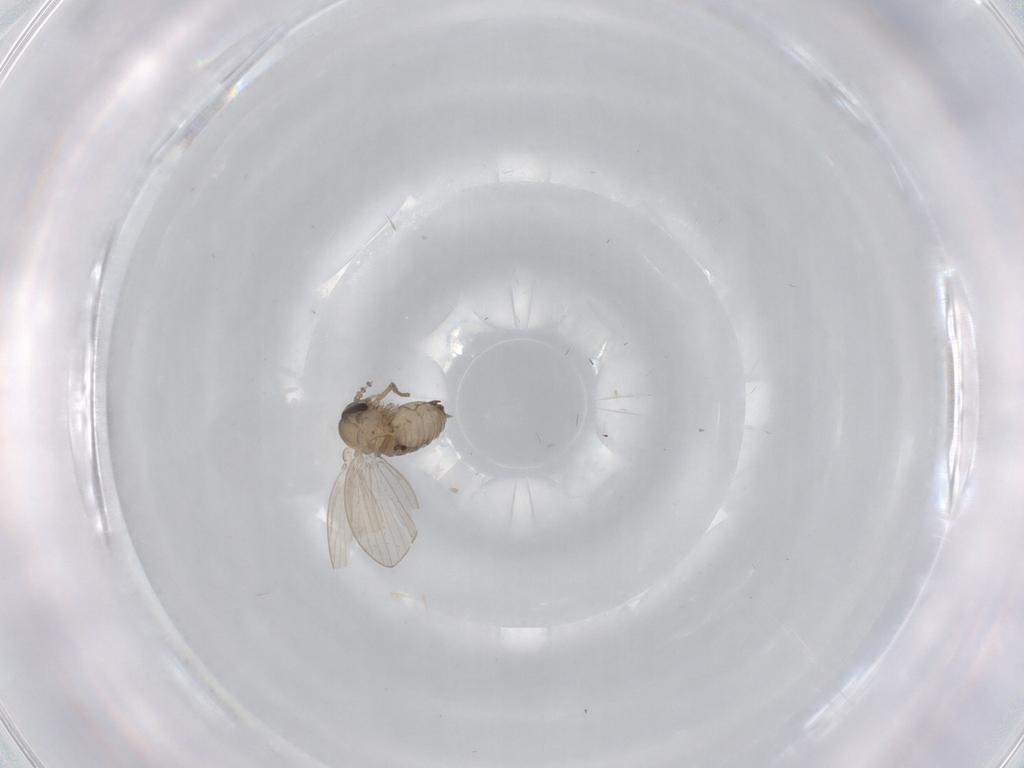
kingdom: Animalia
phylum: Arthropoda
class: Insecta
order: Diptera
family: Psychodidae
